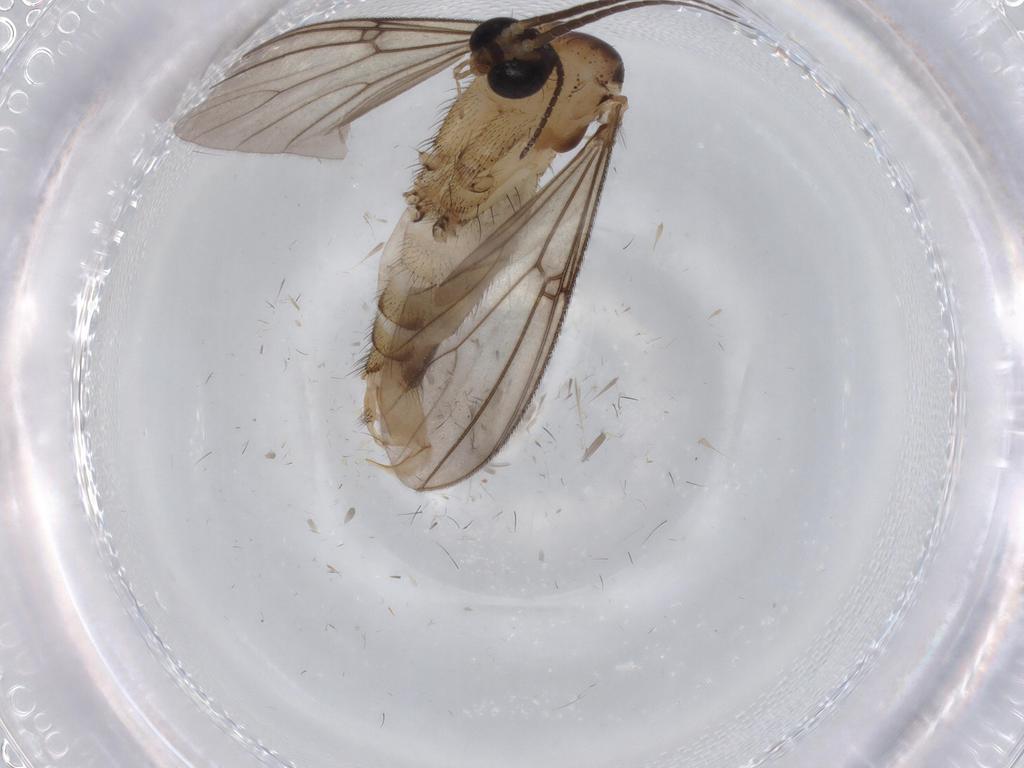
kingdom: Animalia
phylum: Arthropoda
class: Insecta
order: Diptera
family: Mycetophilidae
